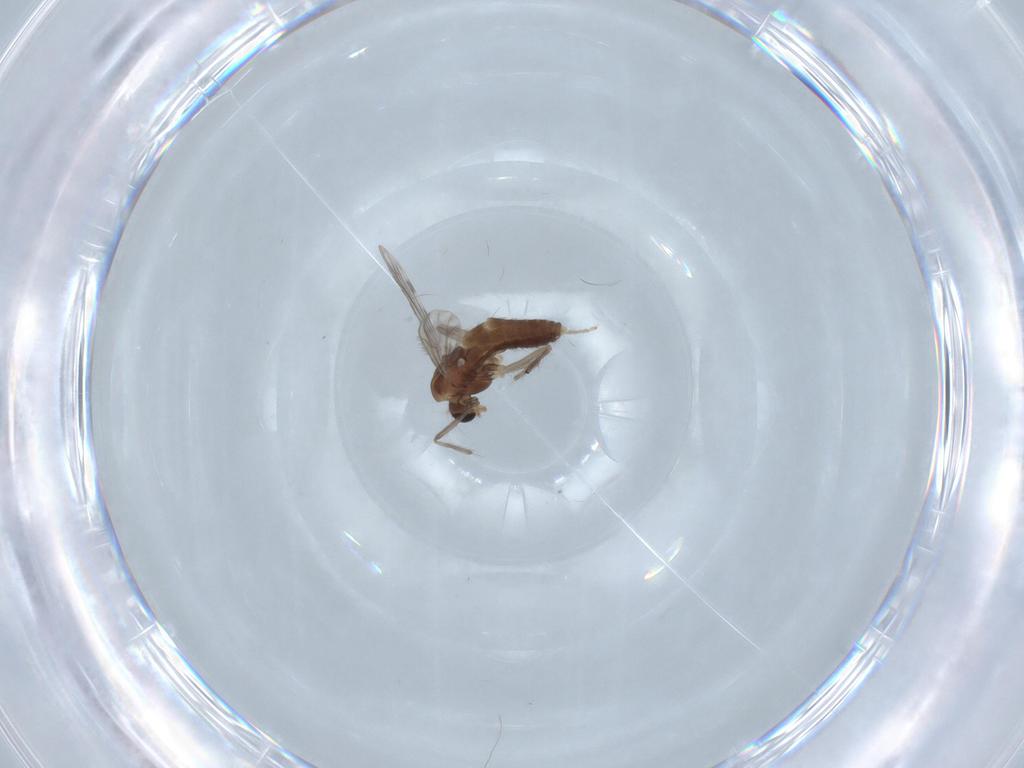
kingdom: Animalia
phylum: Arthropoda
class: Insecta
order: Diptera
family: Chironomidae
